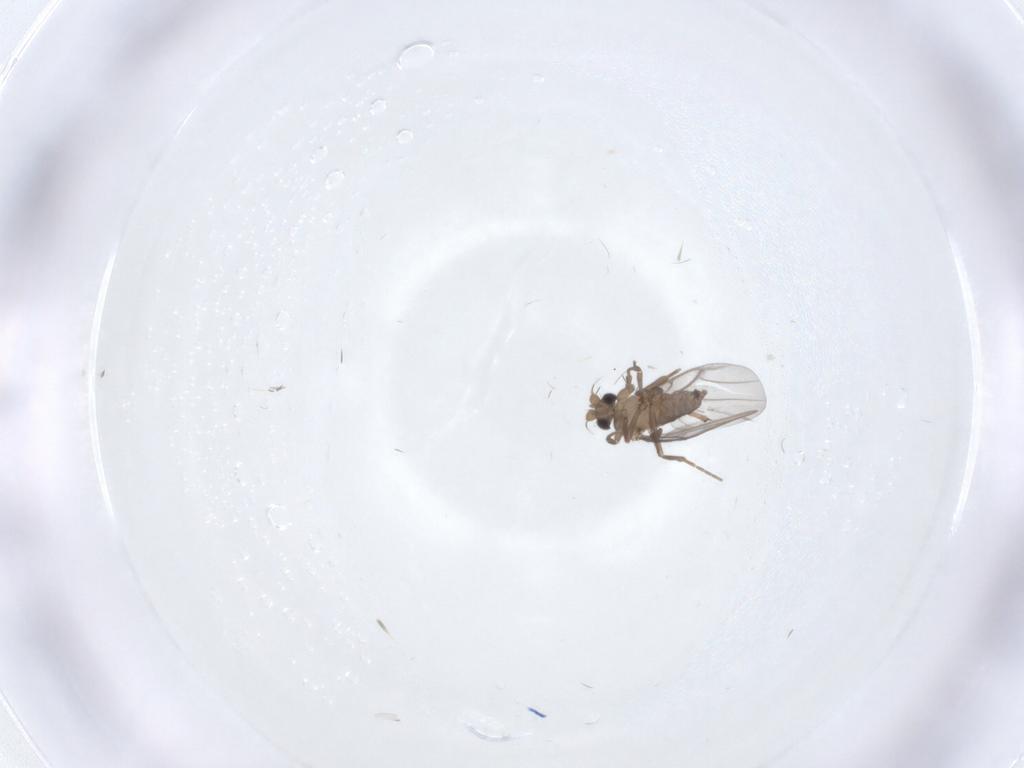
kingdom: Animalia
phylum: Arthropoda
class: Insecta
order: Diptera
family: Chironomidae
